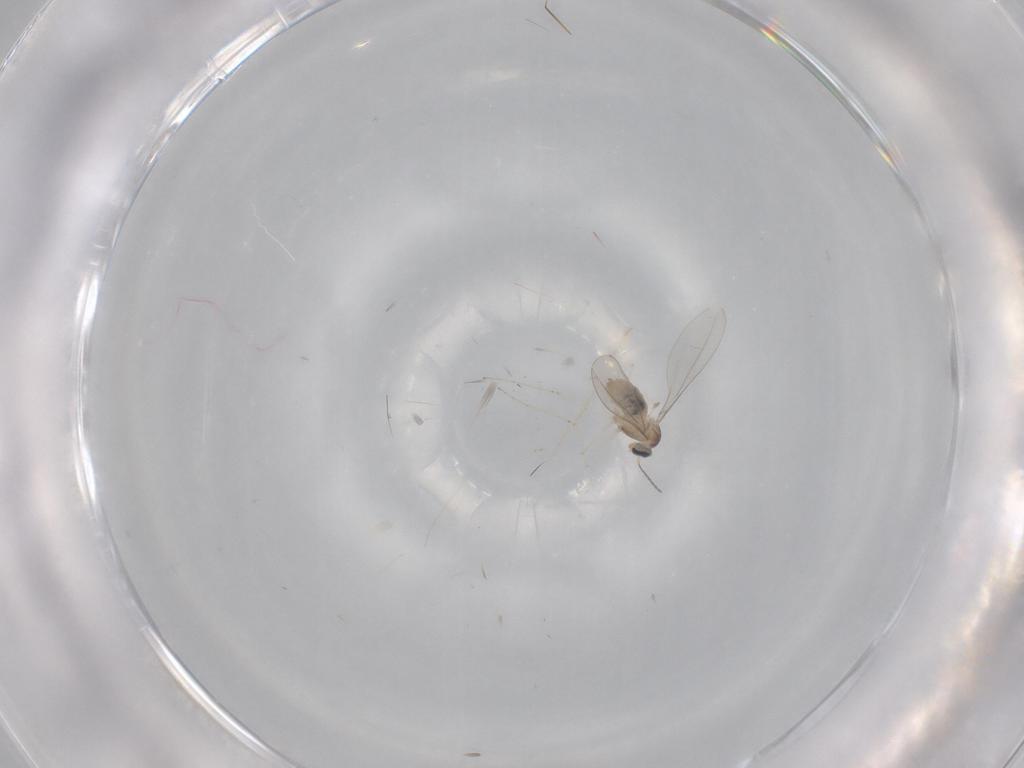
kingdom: Animalia
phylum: Arthropoda
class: Insecta
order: Diptera
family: Cecidomyiidae
